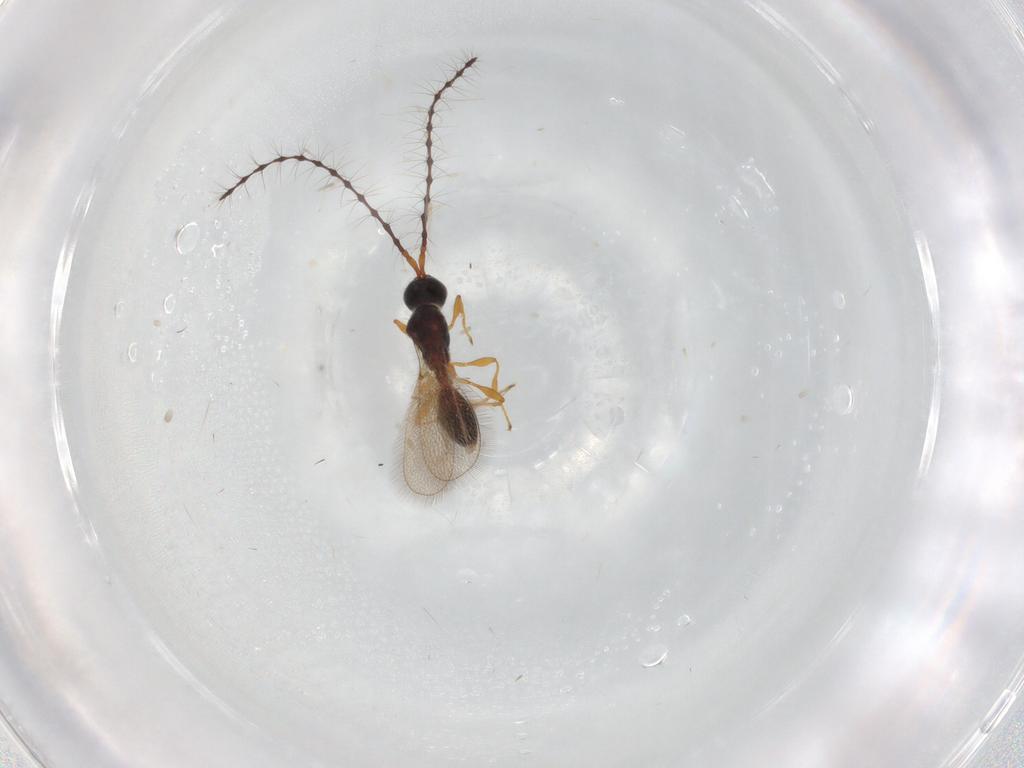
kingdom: Animalia
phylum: Arthropoda
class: Insecta
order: Hymenoptera
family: Diapriidae
